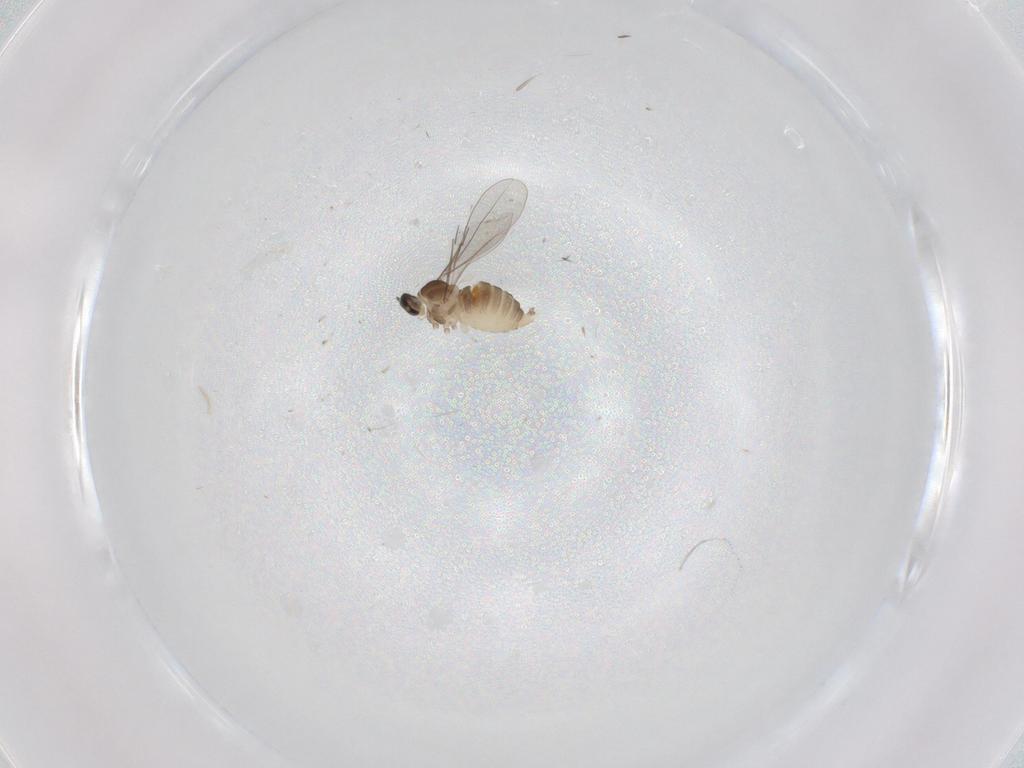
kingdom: Animalia
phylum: Arthropoda
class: Insecta
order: Diptera
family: Cecidomyiidae
